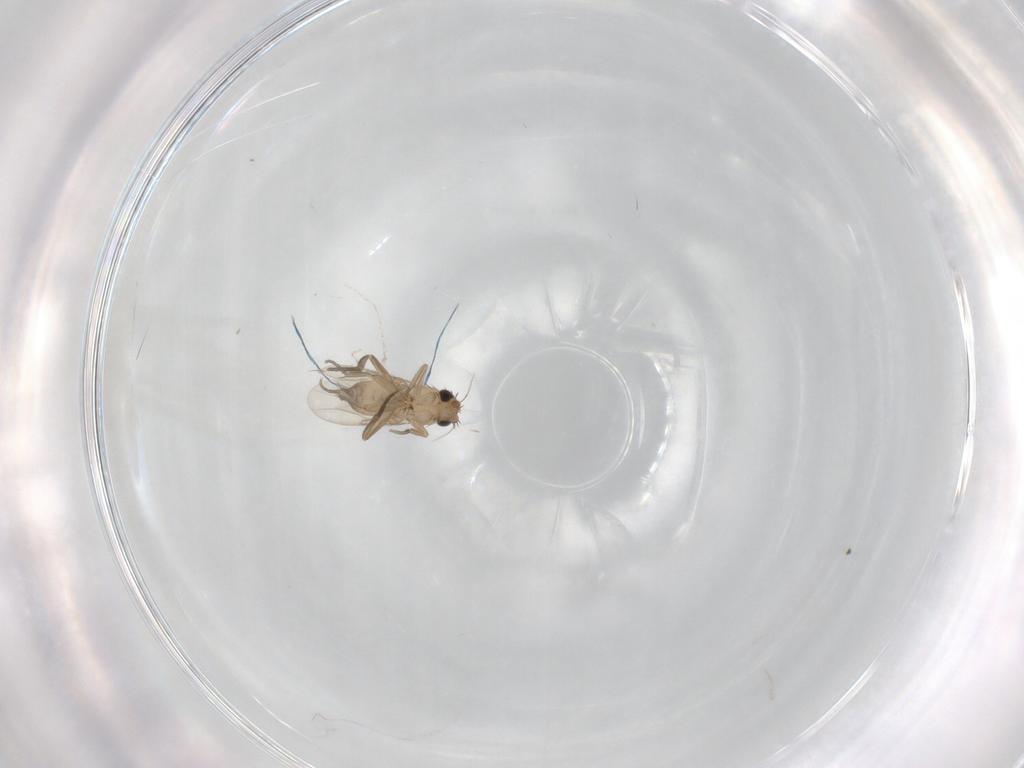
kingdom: Animalia
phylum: Arthropoda
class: Insecta
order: Diptera
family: Phoridae
